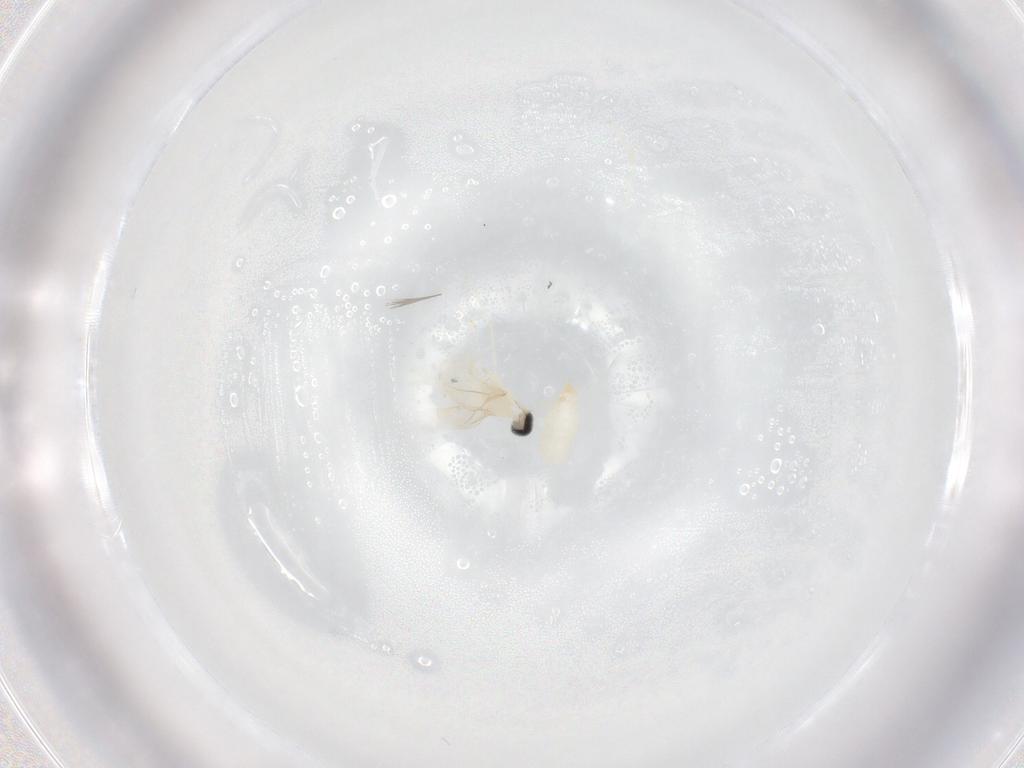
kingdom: Animalia
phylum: Arthropoda
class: Insecta
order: Diptera
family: Cecidomyiidae
